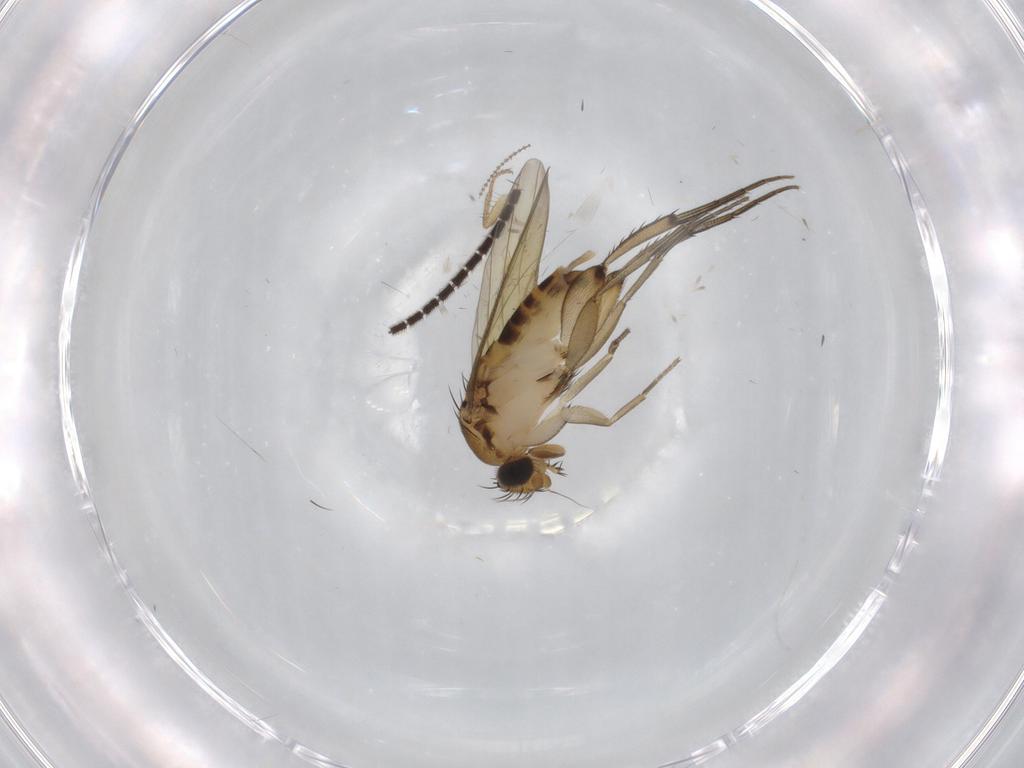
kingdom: Animalia
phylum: Arthropoda
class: Insecta
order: Diptera
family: Phoridae
